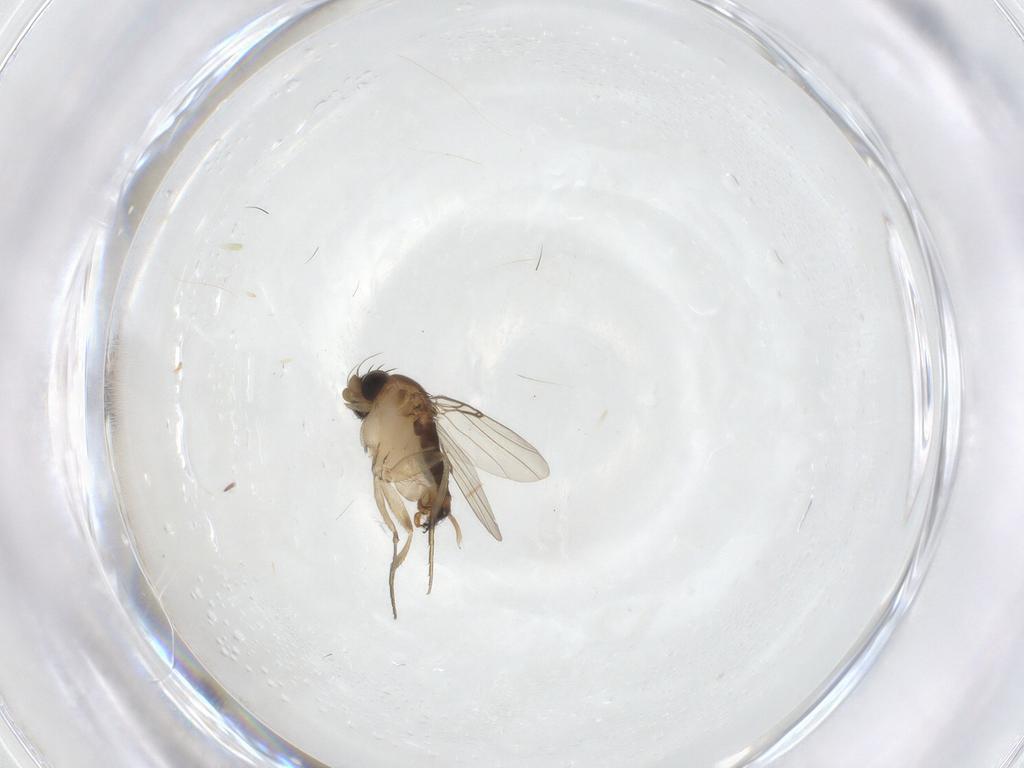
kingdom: Animalia
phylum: Arthropoda
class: Insecta
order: Diptera
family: Phoridae
